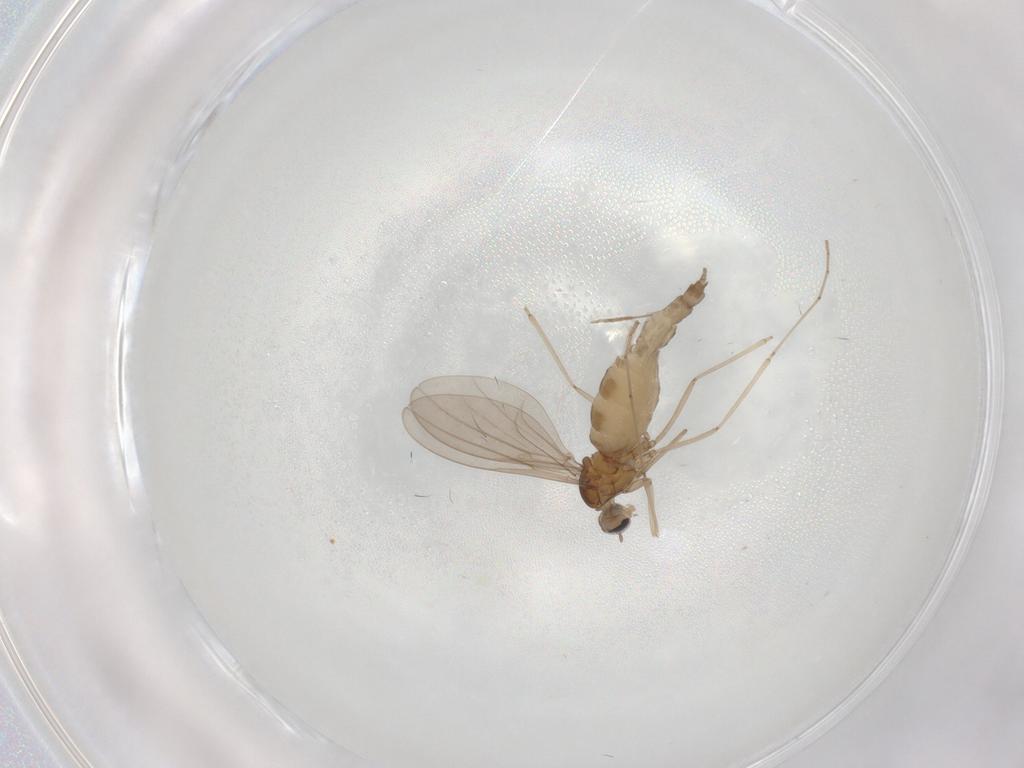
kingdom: Animalia
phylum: Arthropoda
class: Insecta
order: Diptera
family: Cecidomyiidae
